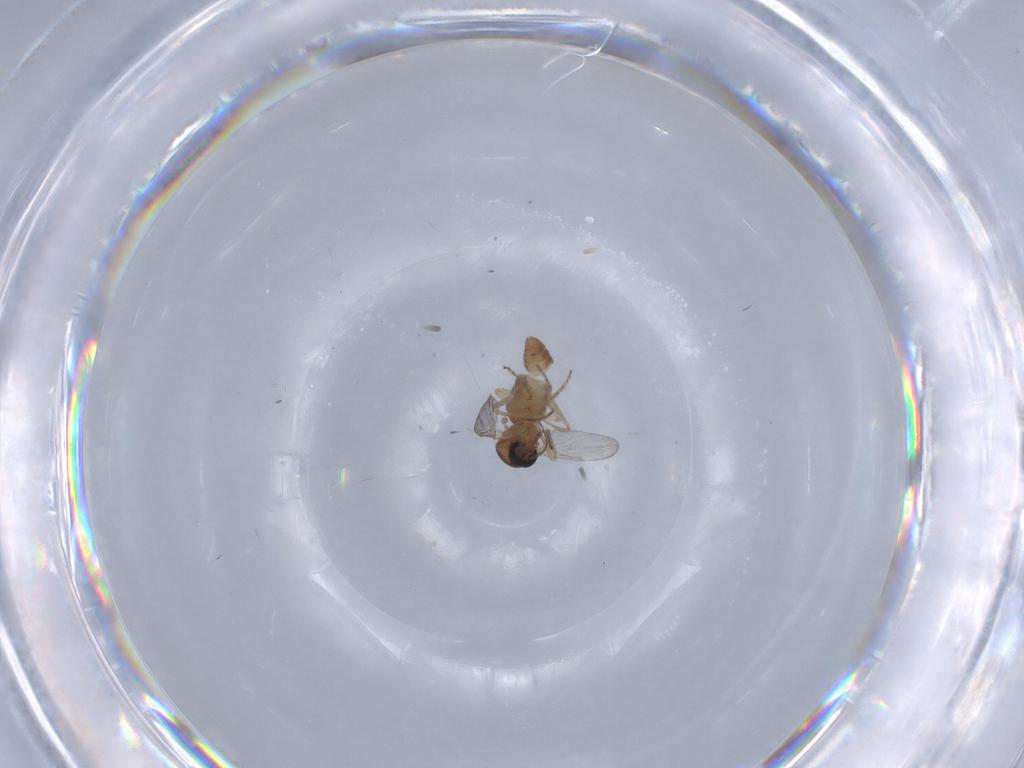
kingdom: Animalia
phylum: Arthropoda
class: Insecta
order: Diptera
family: Ceratopogonidae
